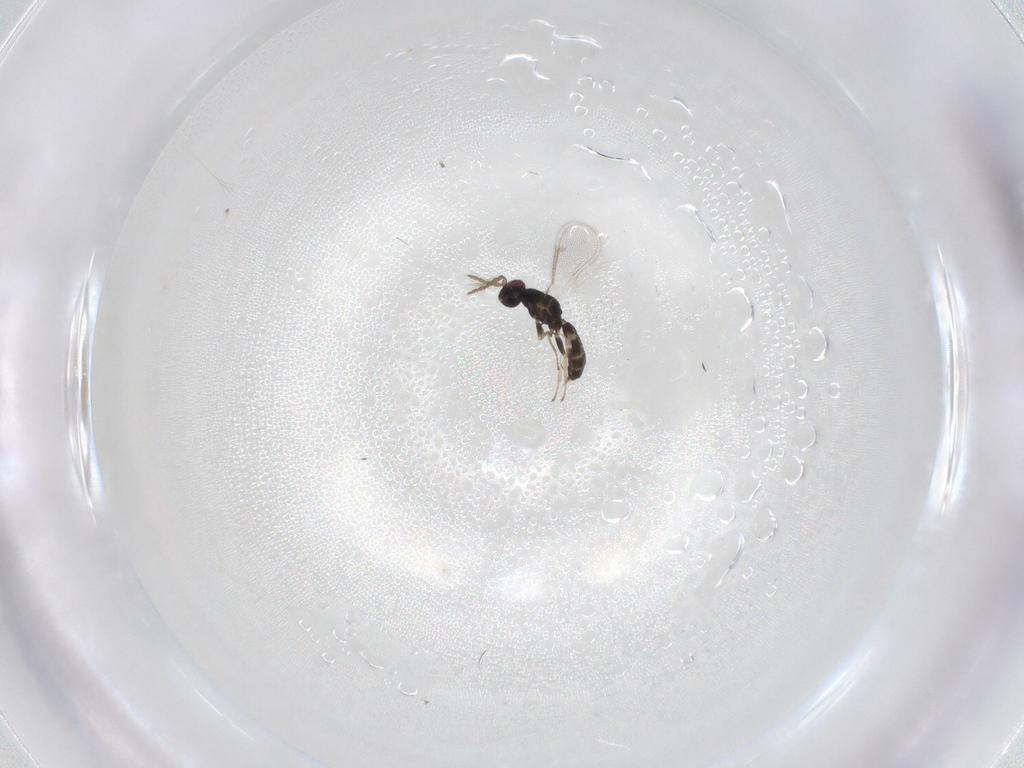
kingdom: Animalia
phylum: Arthropoda
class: Insecta
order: Hymenoptera
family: Eulophidae
